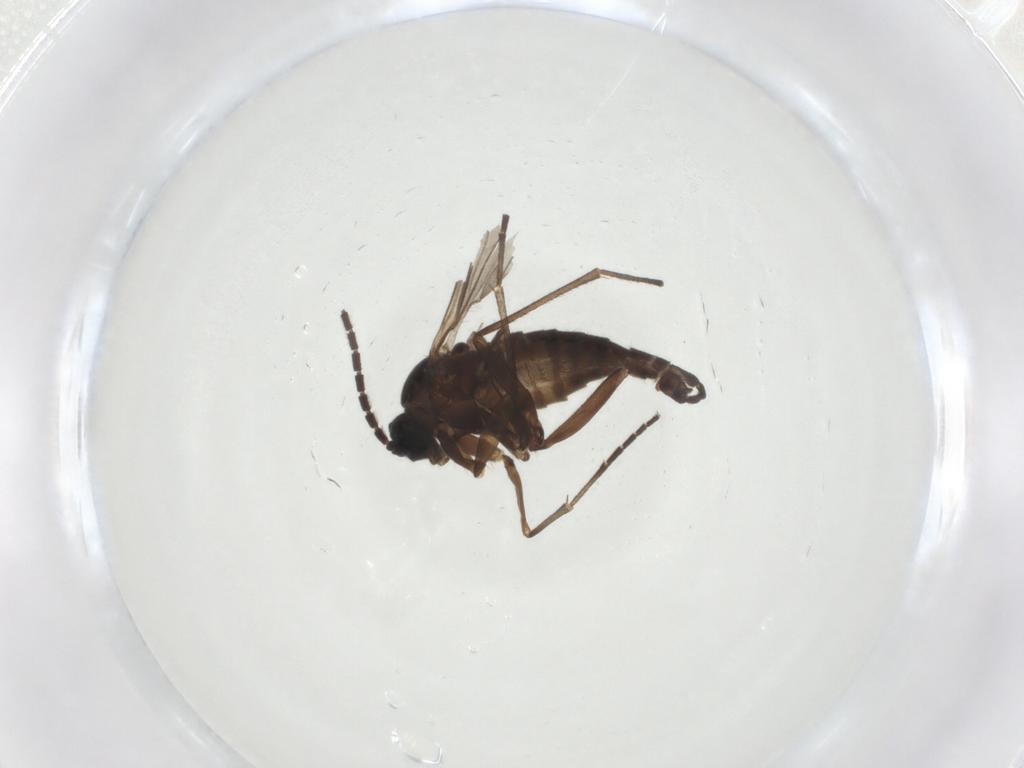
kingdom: Animalia
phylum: Arthropoda
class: Insecta
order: Diptera
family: Sciaridae
